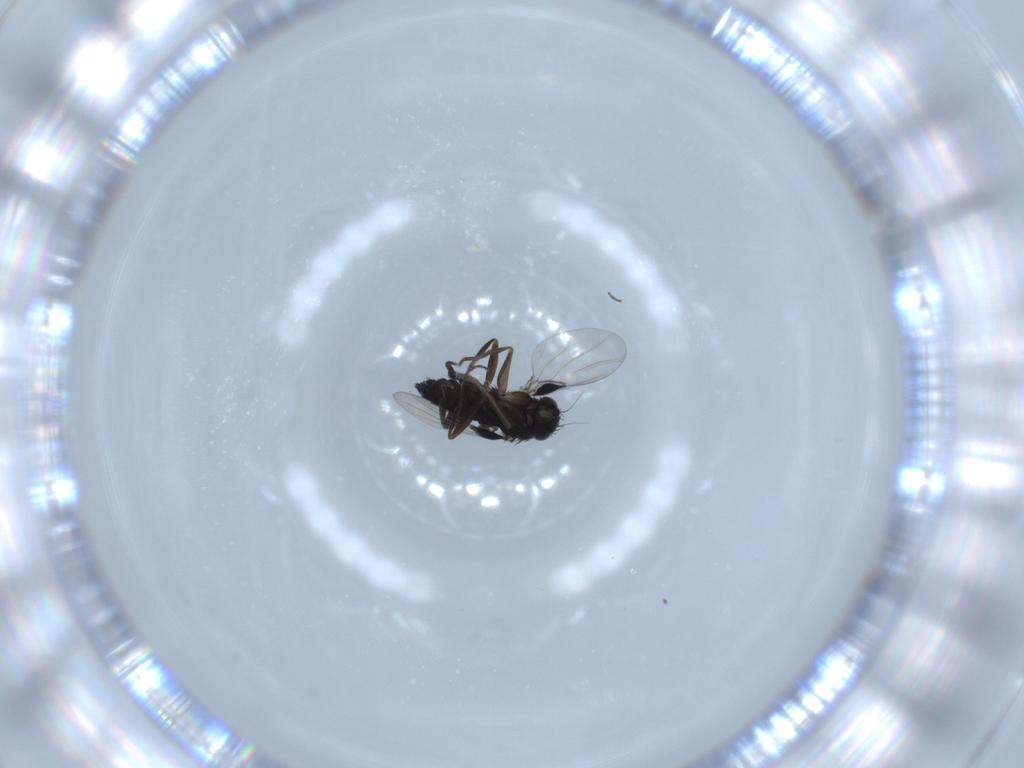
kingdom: Animalia
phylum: Arthropoda
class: Insecta
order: Diptera
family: Phoridae
